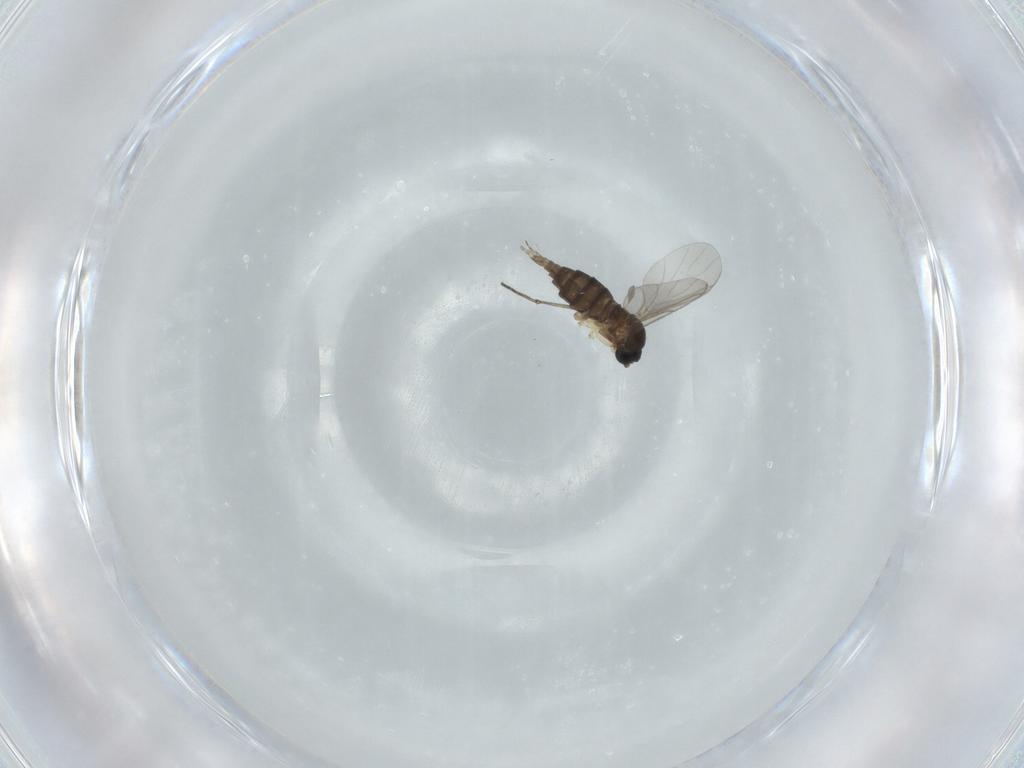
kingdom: Animalia
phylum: Arthropoda
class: Insecta
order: Diptera
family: Sciaridae
